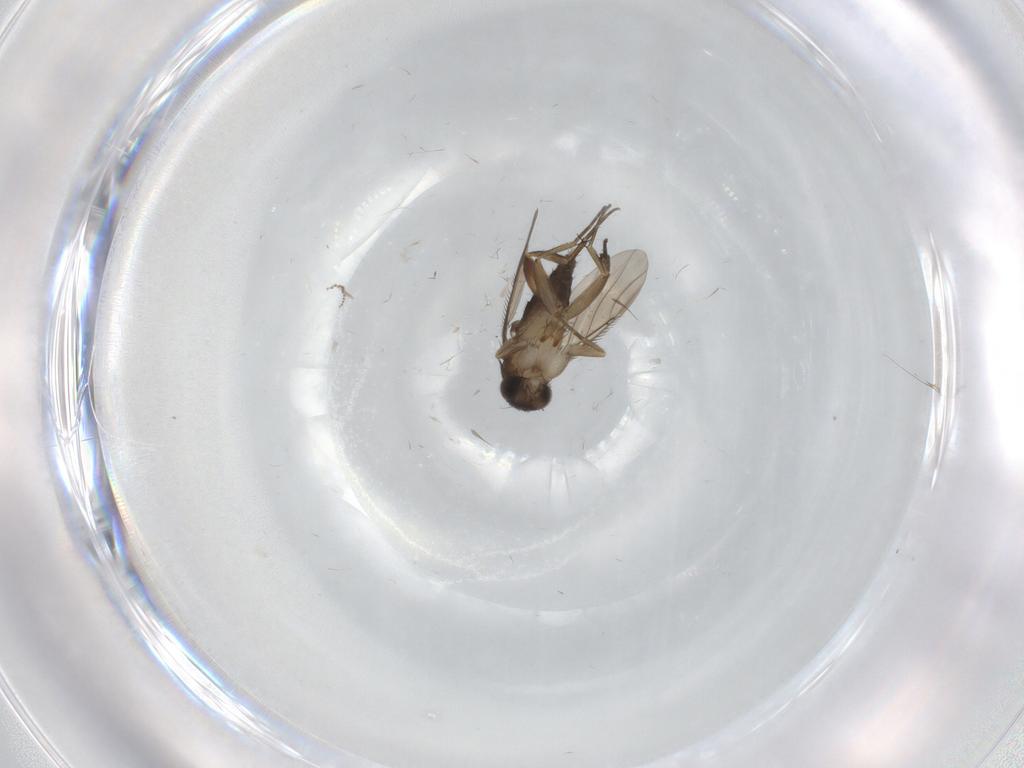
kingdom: Animalia
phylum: Arthropoda
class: Insecta
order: Diptera
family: Phoridae
